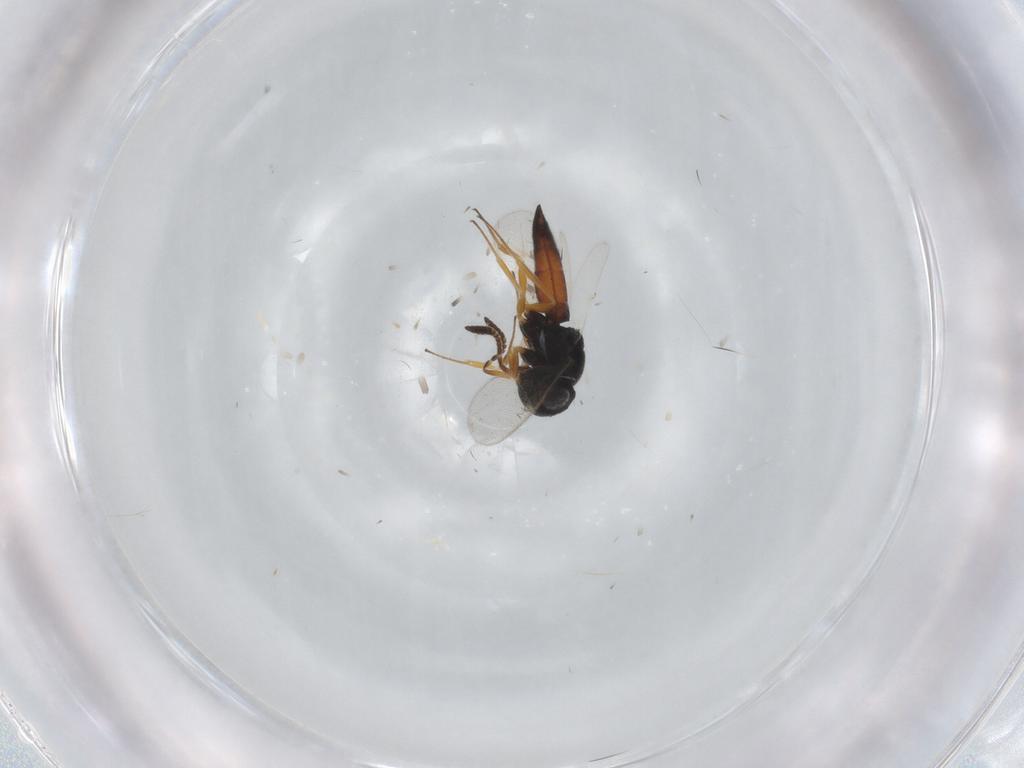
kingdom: Animalia
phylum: Arthropoda
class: Insecta
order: Hymenoptera
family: Scelionidae
